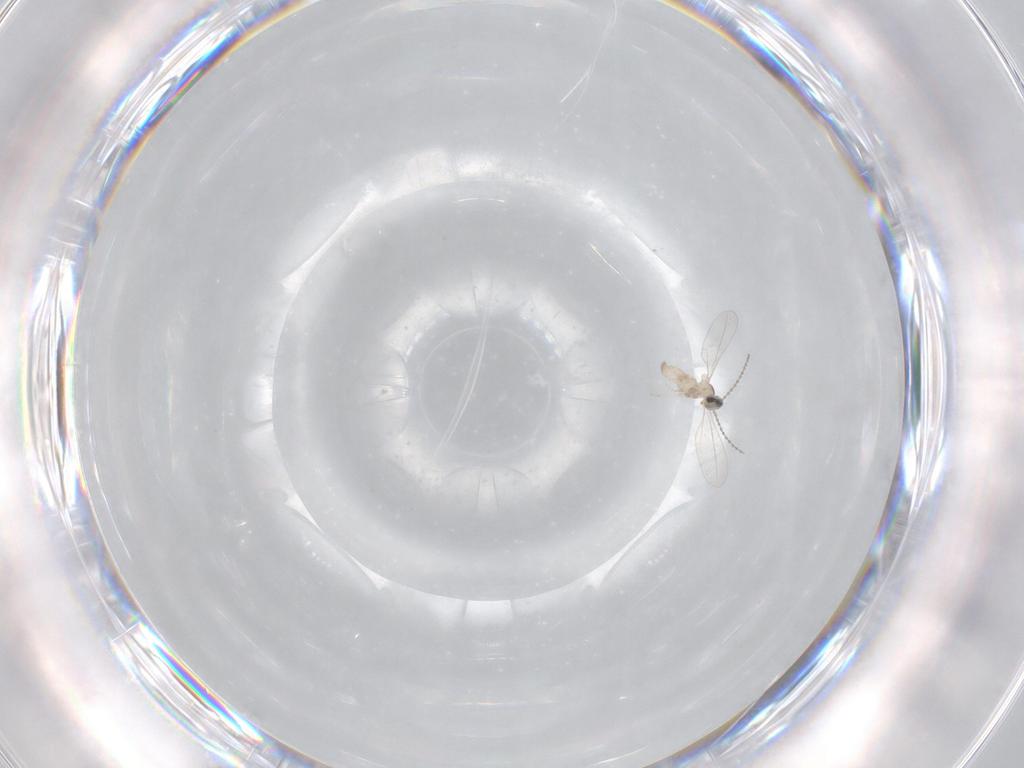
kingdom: Animalia
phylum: Arthropoda
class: Insecta
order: Diptera
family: Cecidomyiidae
